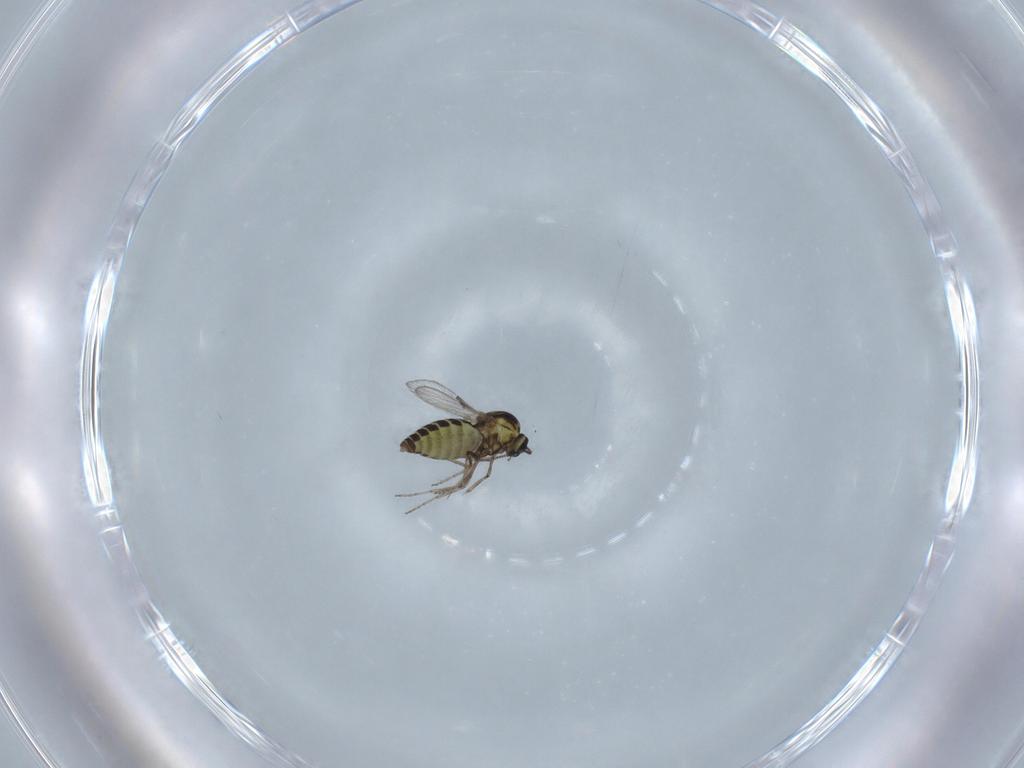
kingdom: Animalia
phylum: Arthropoda
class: Insecta
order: Diptera
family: Ceratopogonidae
